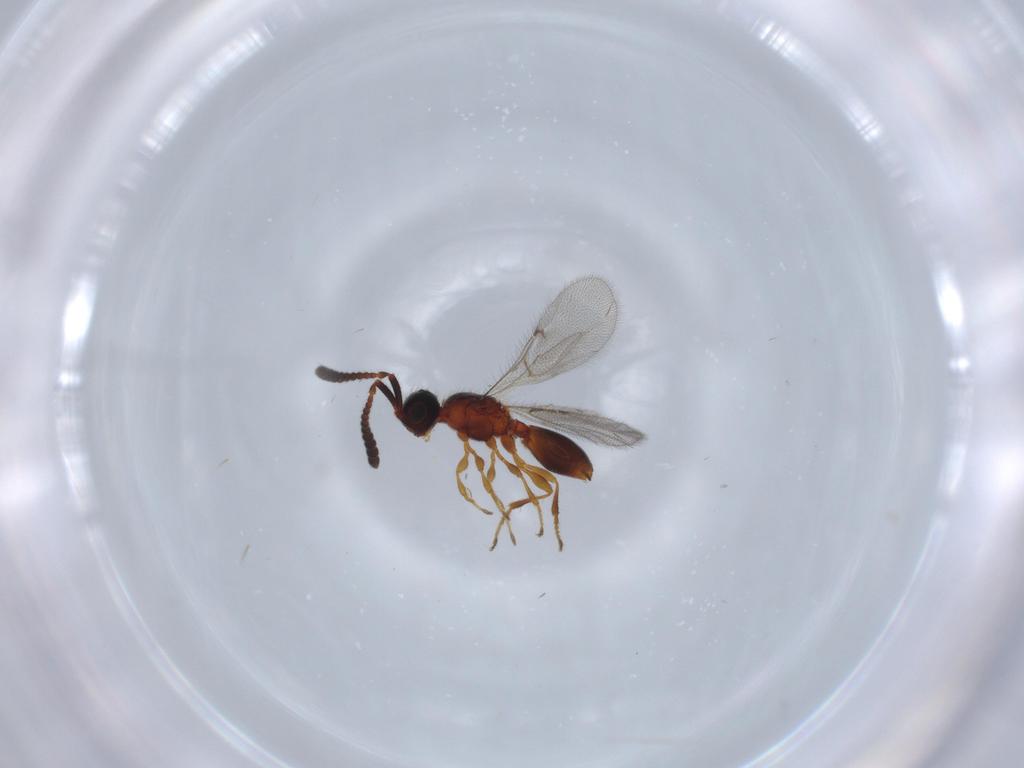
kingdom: Animalia
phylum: Arthropoda
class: Insecta
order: Hymenoptera
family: Diapriidae
